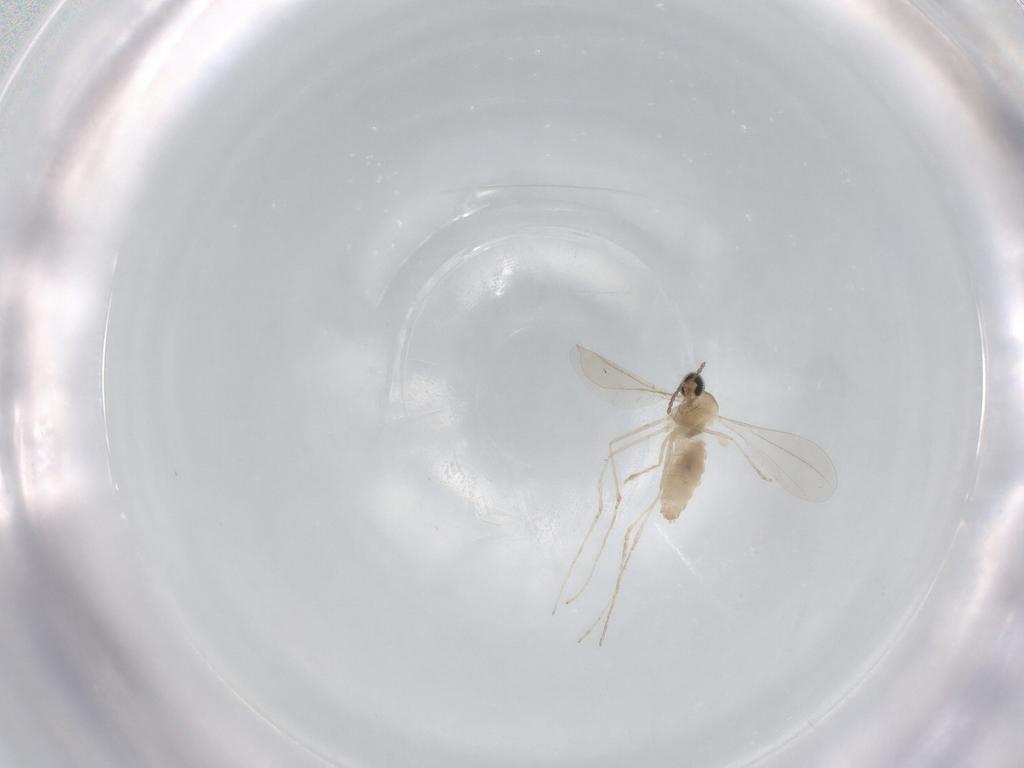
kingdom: Animalia
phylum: Arthropoda
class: Insecta
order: Diptera
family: Cecidomyiidae
